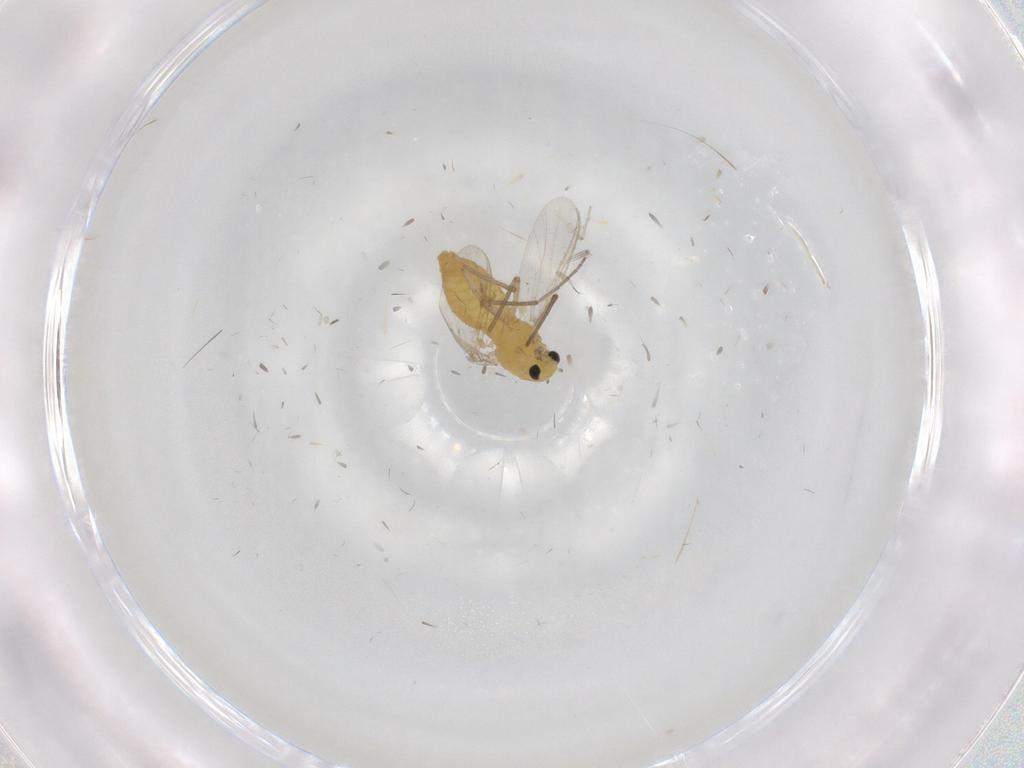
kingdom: Animalia
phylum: Arthropoda
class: Insecta
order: Diptera
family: Chironomidae
